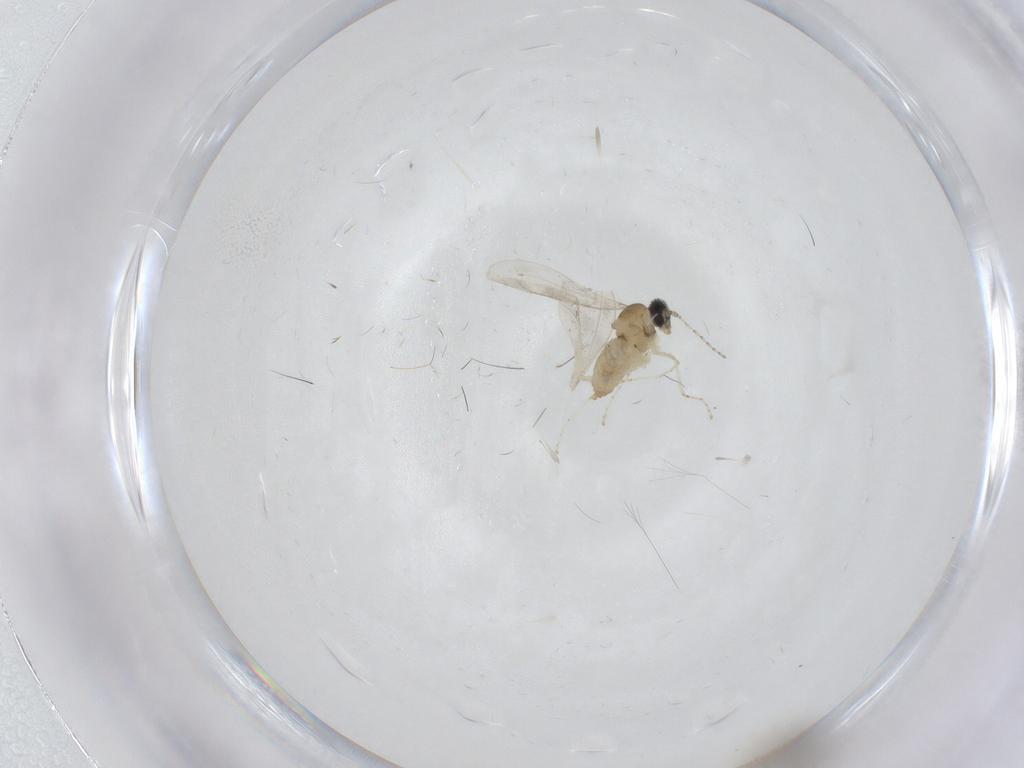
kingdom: Animalia
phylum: Arthropoda
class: Insecta
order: Diptera
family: Cecidomyiidae
